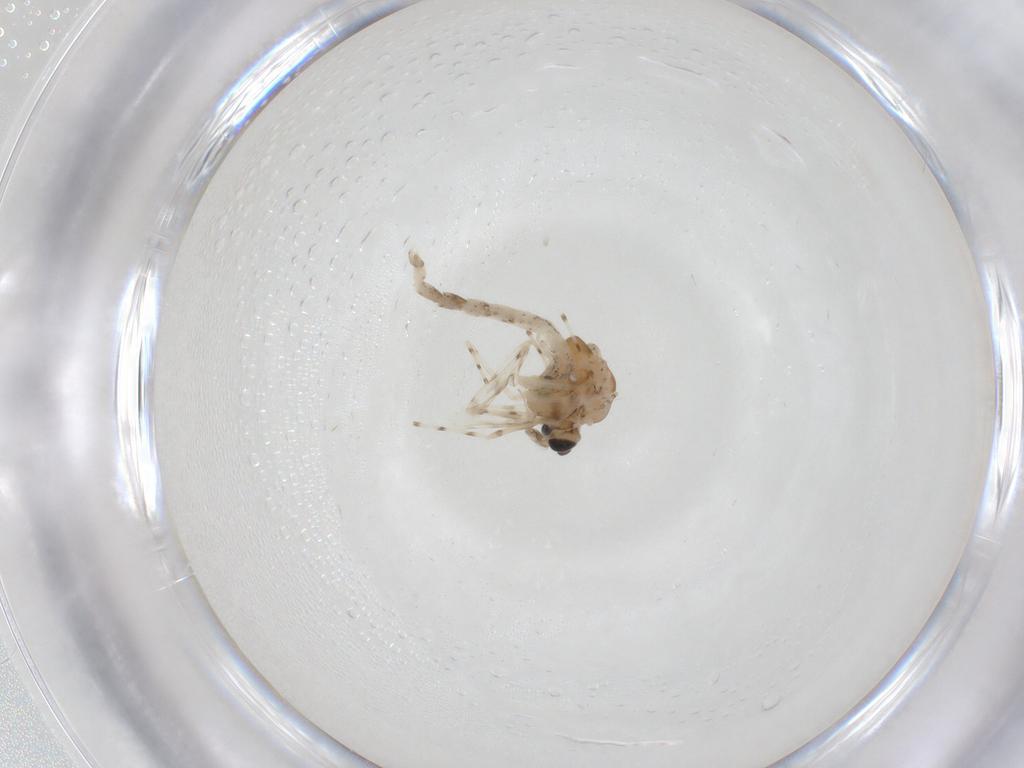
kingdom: Animalia
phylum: Arthropoda
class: Insecta
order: Diptera
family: Chironomidae
